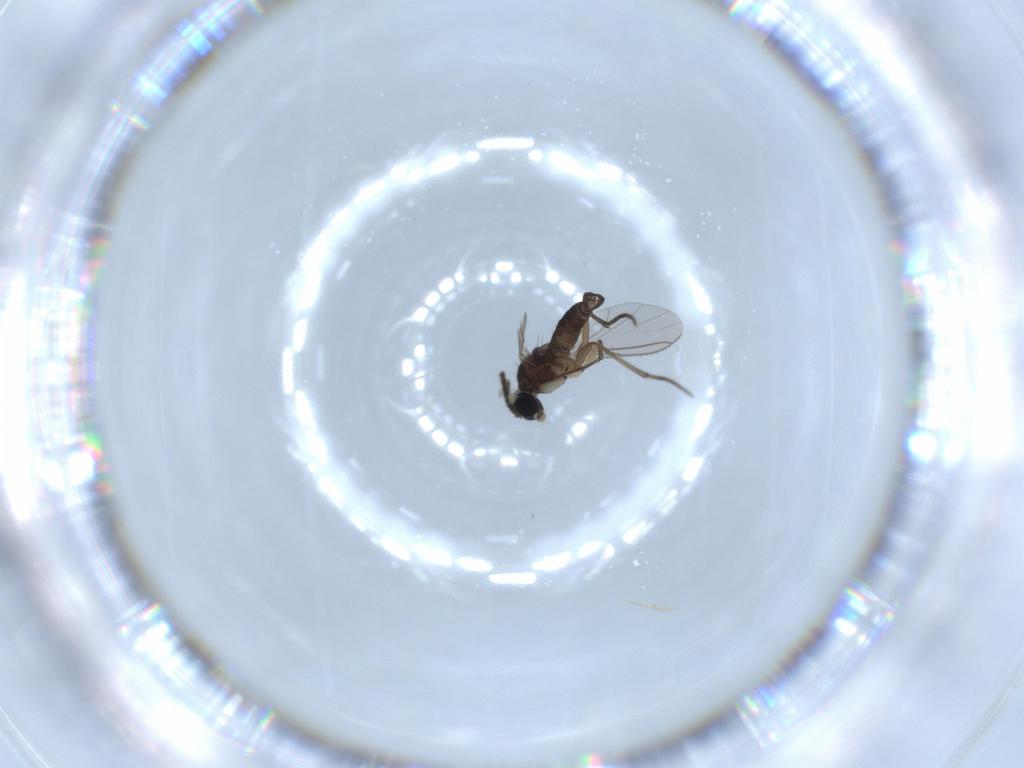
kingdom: Animalia
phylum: Arthropoda
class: Insecta
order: Diptera
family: Sciaridae
